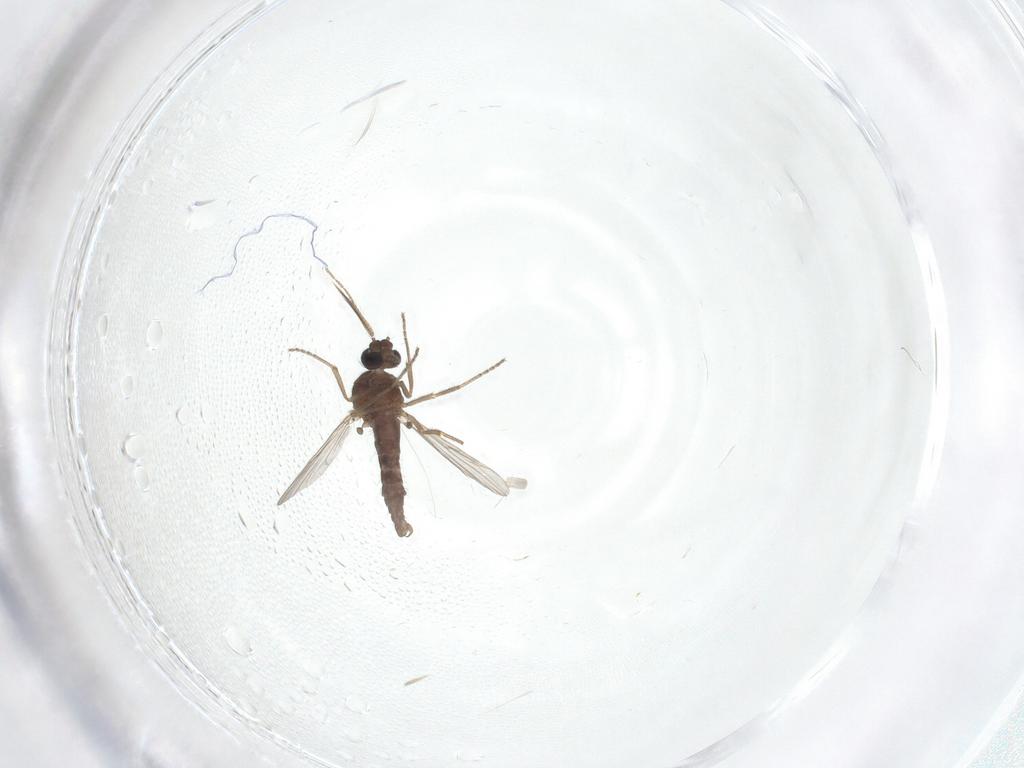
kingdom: Animalia
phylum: Arthropoda
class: Insecta
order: Diptera
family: Ceratopogonidae
